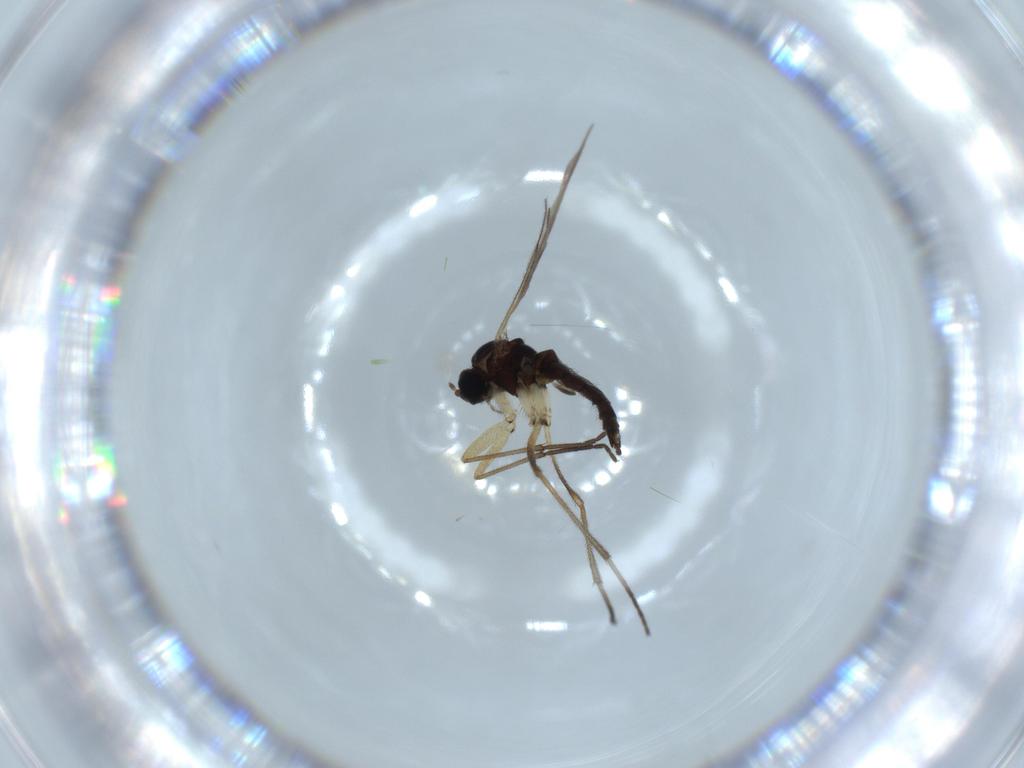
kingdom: Animalia
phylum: Arthropoda
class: Insecta
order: Diptera
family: Sciaridae
